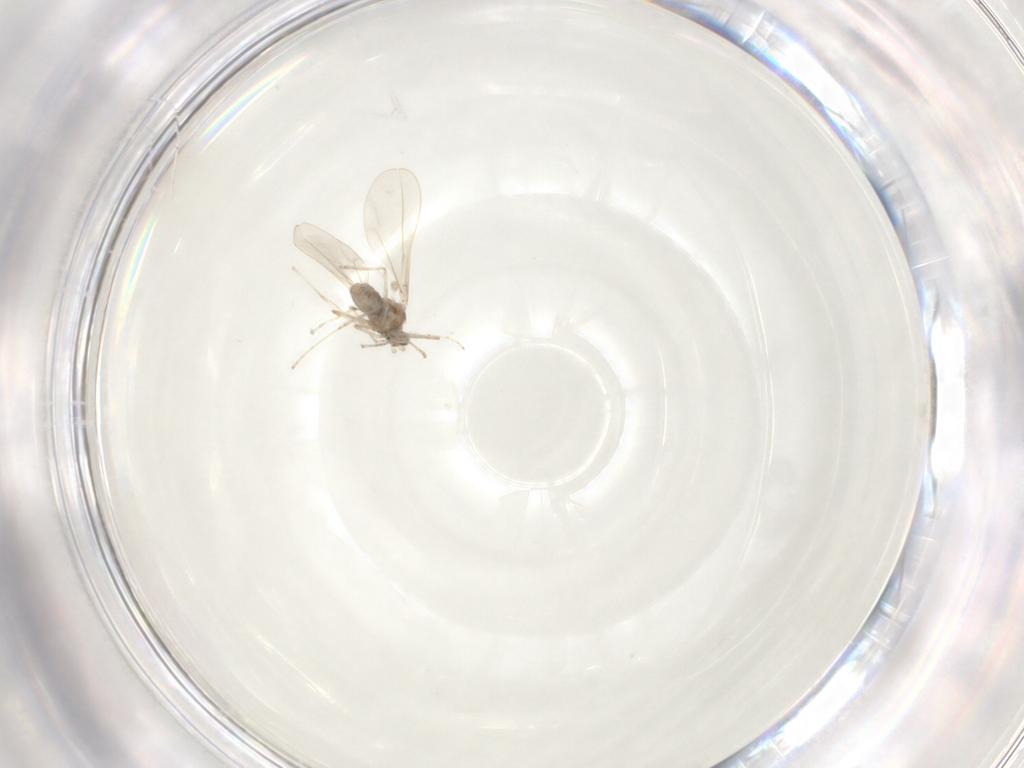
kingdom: Animalia
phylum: Arthropoda
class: Insecta
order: Diptera
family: Cecidomyiidae
